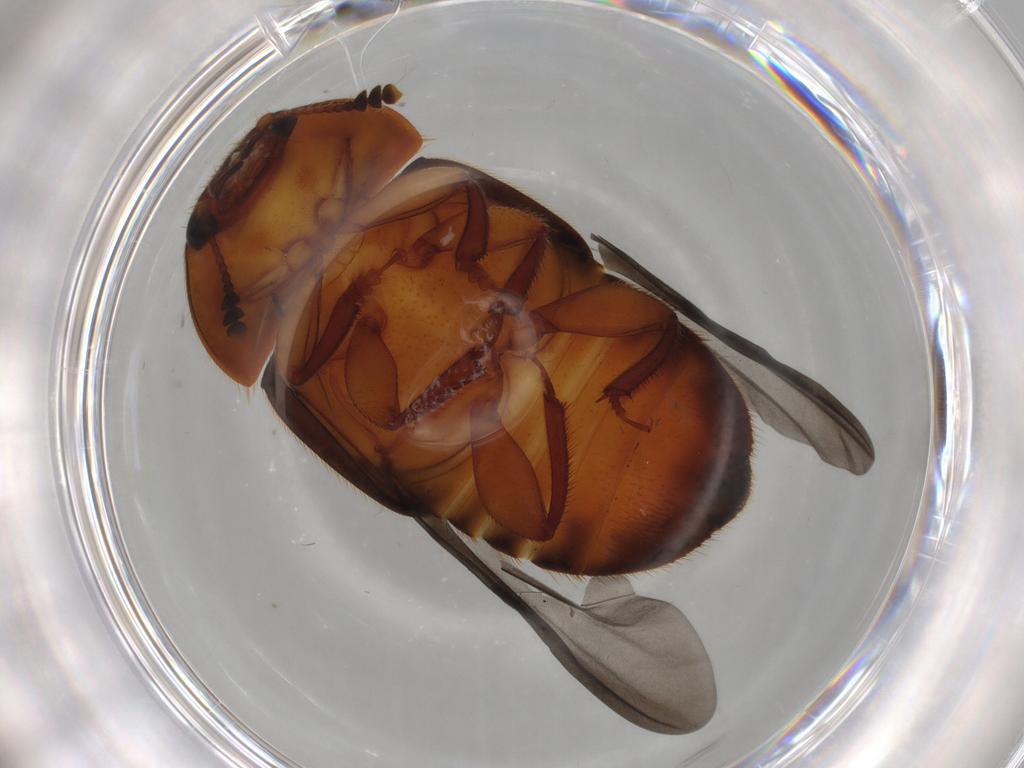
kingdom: Animalia
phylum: Arthropoda
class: Insecta
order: Coleoptera
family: Nitidulidae
